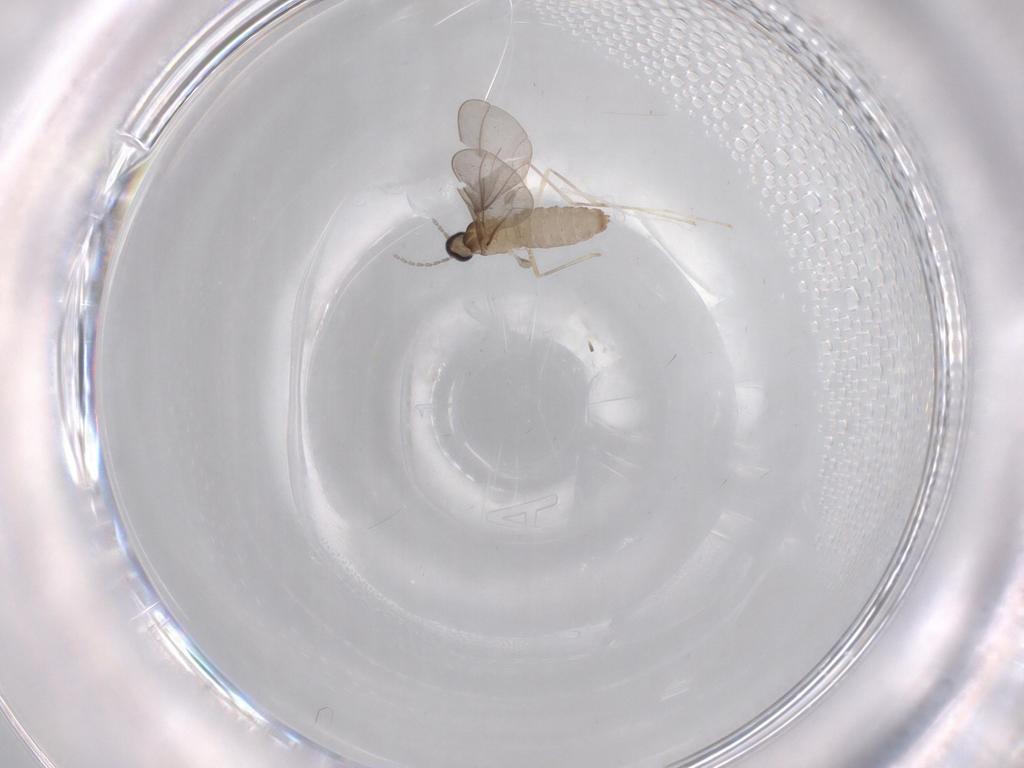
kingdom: Animalia
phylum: Arthropoda
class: Insecta
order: Diptera
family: Cecidomyiidae
